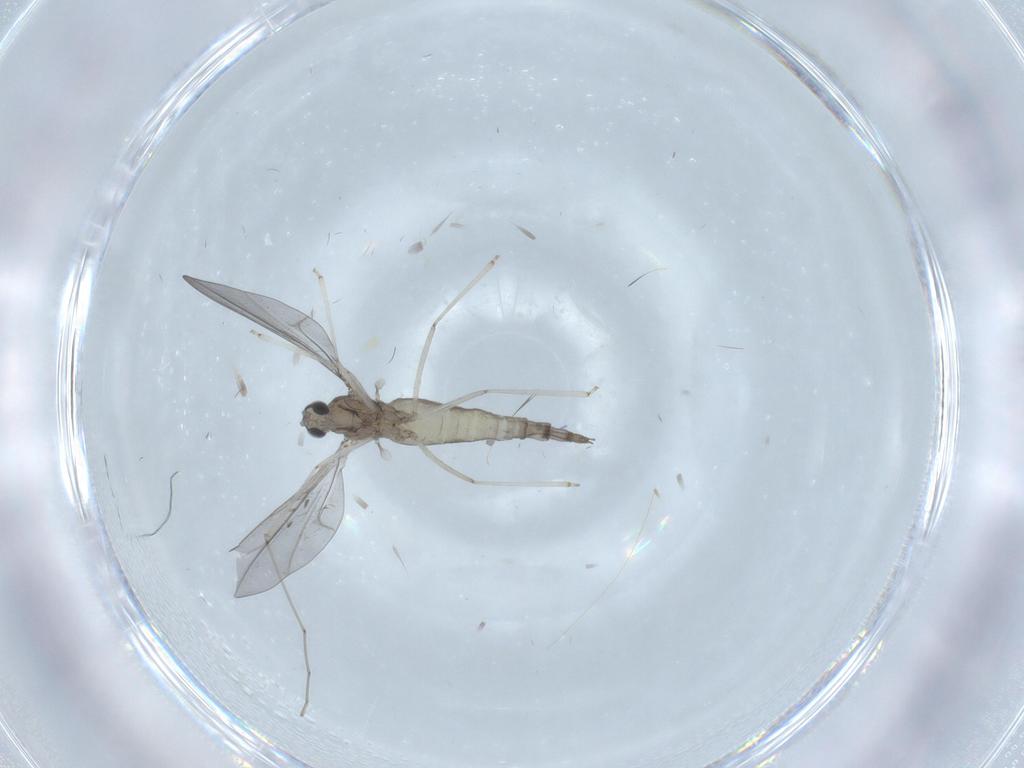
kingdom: Animalia
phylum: Arthropoda
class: Insecta
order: Diptera
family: Cecidomyiidae
